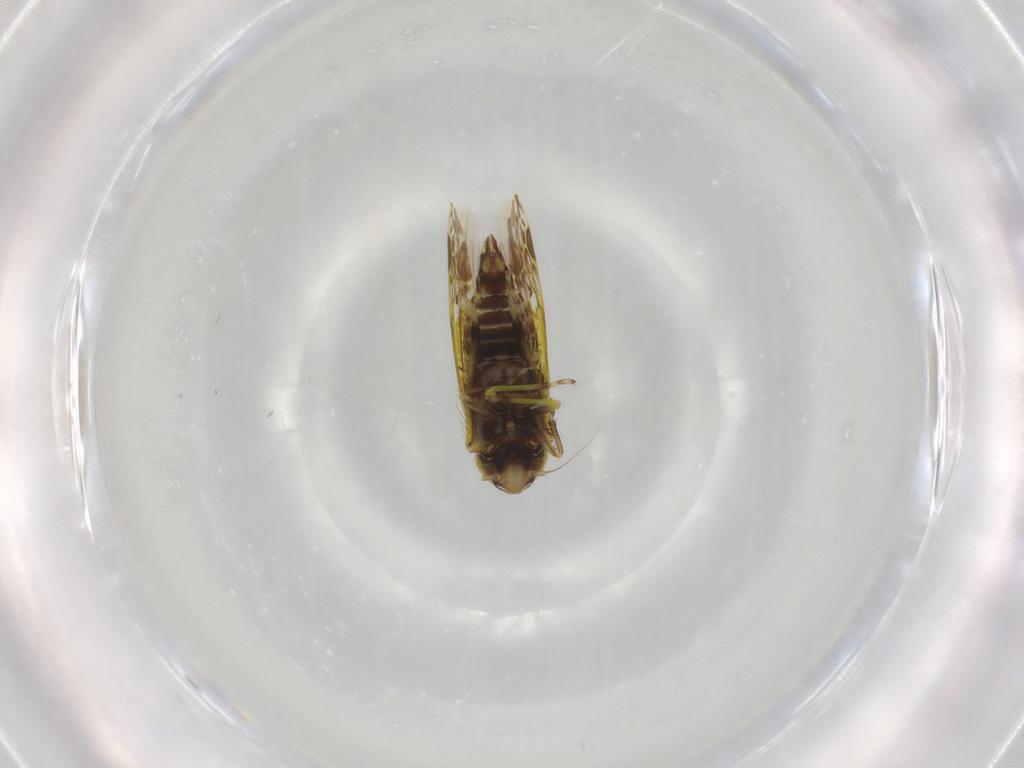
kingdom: Animalia
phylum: Arthropoda
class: Insecta
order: Hemiptera
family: Cicadellidae
